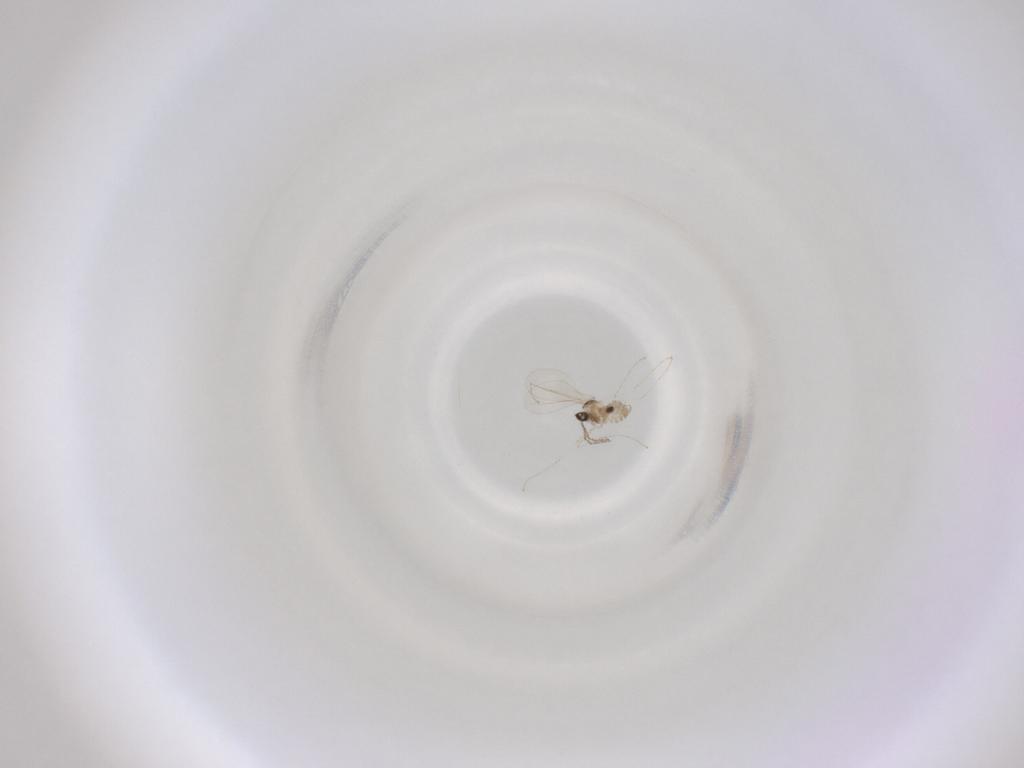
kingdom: Animalia
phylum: Arthropoda
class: Insecta
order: Diptera
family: Cecidomyiidae
